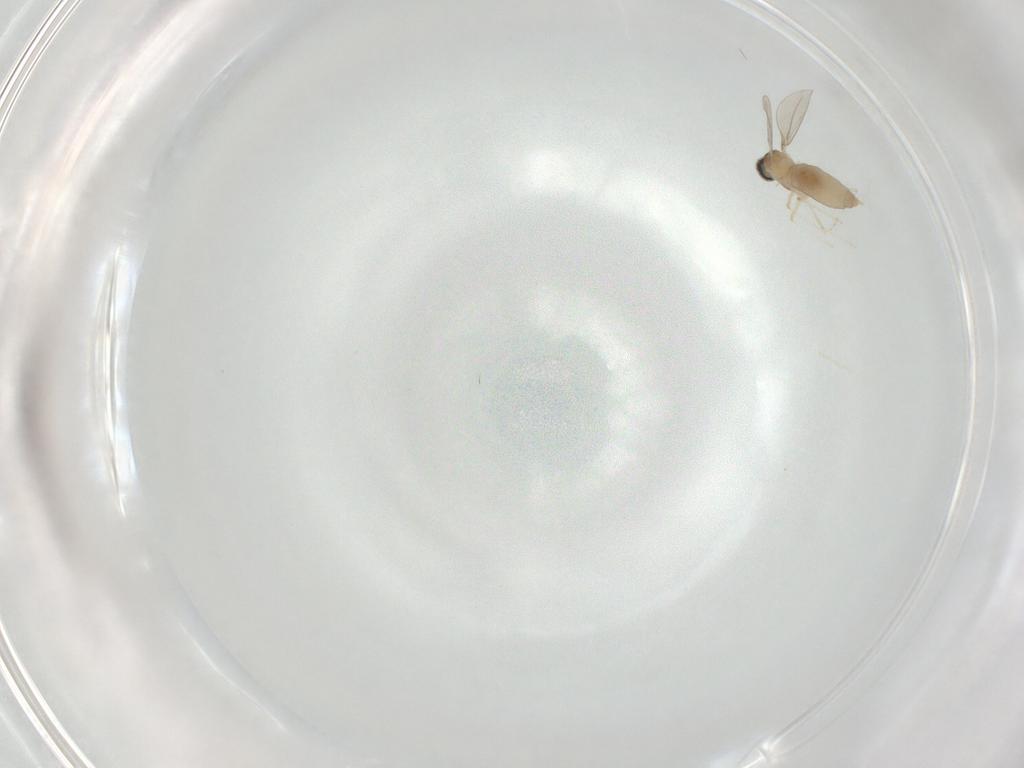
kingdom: Animalia
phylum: Arthropoda
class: Insecta
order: Diptera
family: Cecidomyiidae
